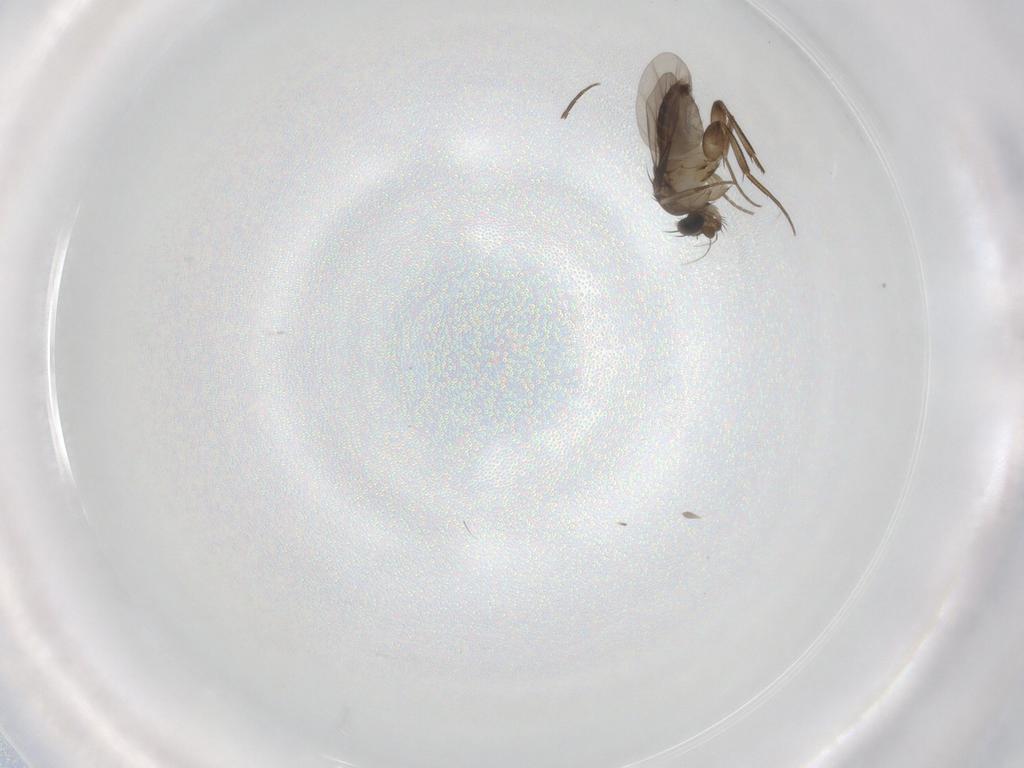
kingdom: Animalia
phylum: Arthropoda
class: Insecta
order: Diptera
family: Phoridae
